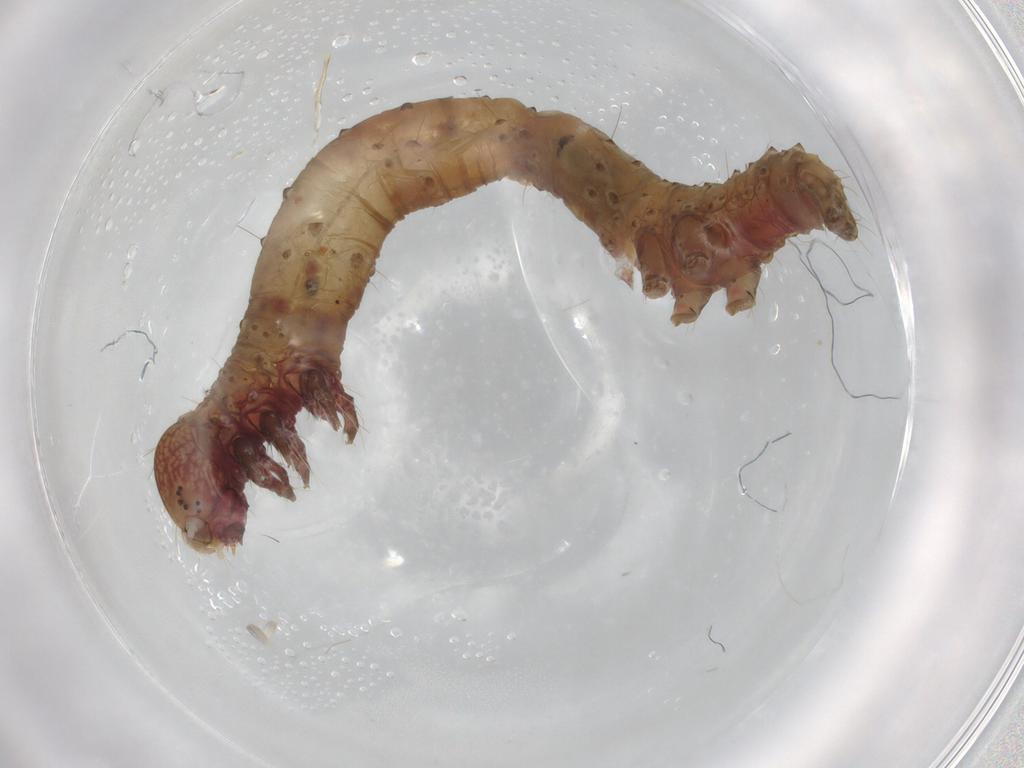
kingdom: Animalia
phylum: Arthropoda
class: Insecta
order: Lepidoptera
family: Erebidae
